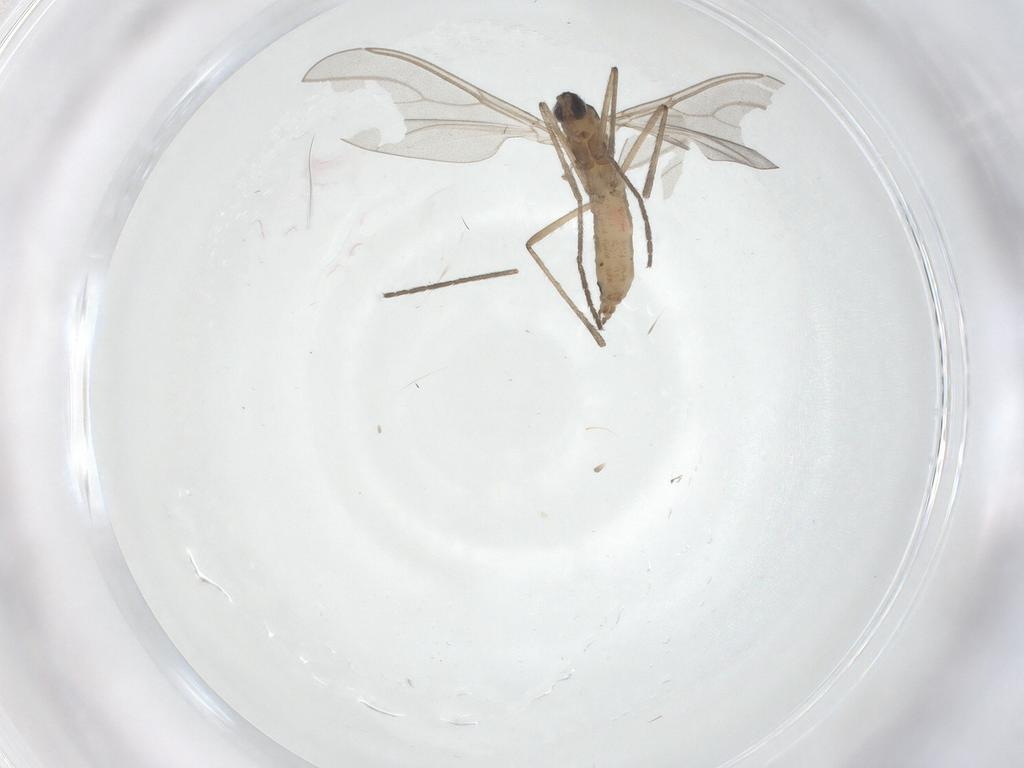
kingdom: Animalia
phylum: Arthropoda
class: Insecta
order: Diptera
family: Cecidomyiidae
